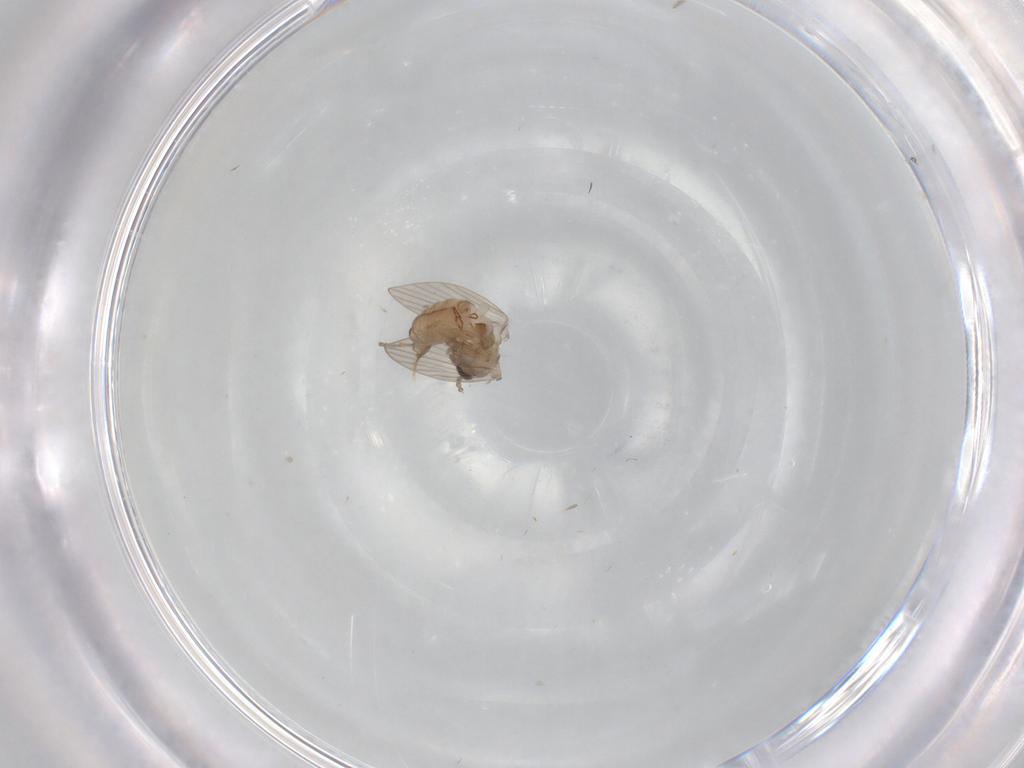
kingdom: Animalia
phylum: Arthropoda
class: Insecta
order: Diptera
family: Psychodidae
